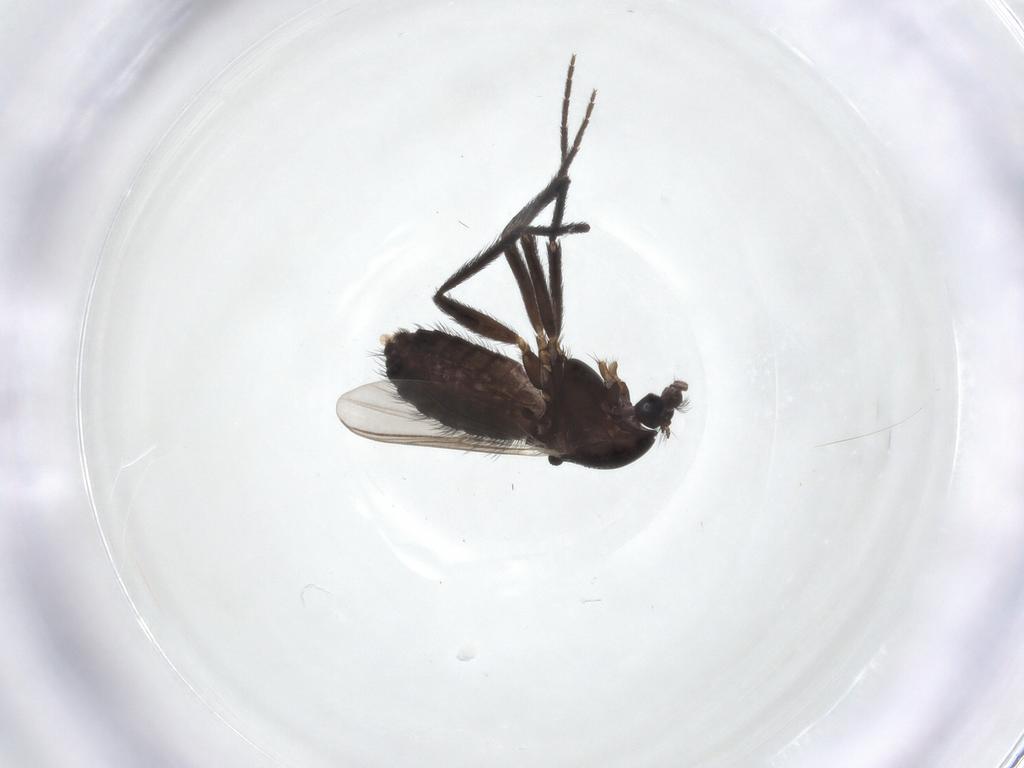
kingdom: Animalia
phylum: Arthropoda
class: Insecta
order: Diptera
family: Chironomidae
